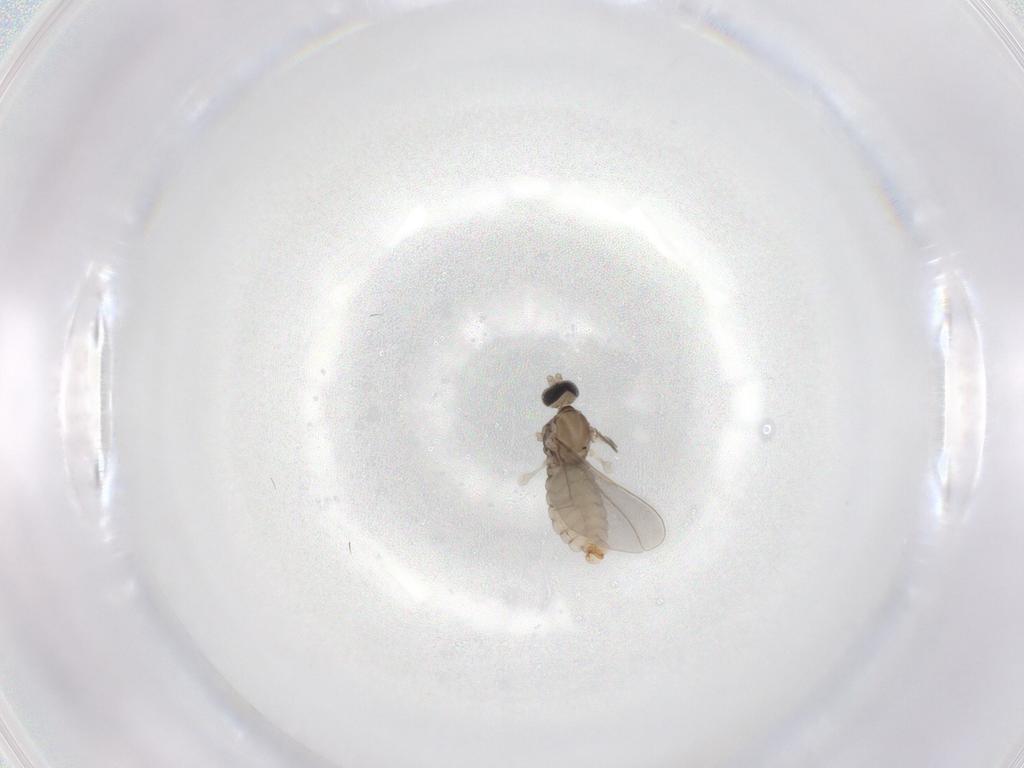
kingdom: Animalia
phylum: Arthropoda
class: Insecta
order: Diptera
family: Cecidomyiidae
